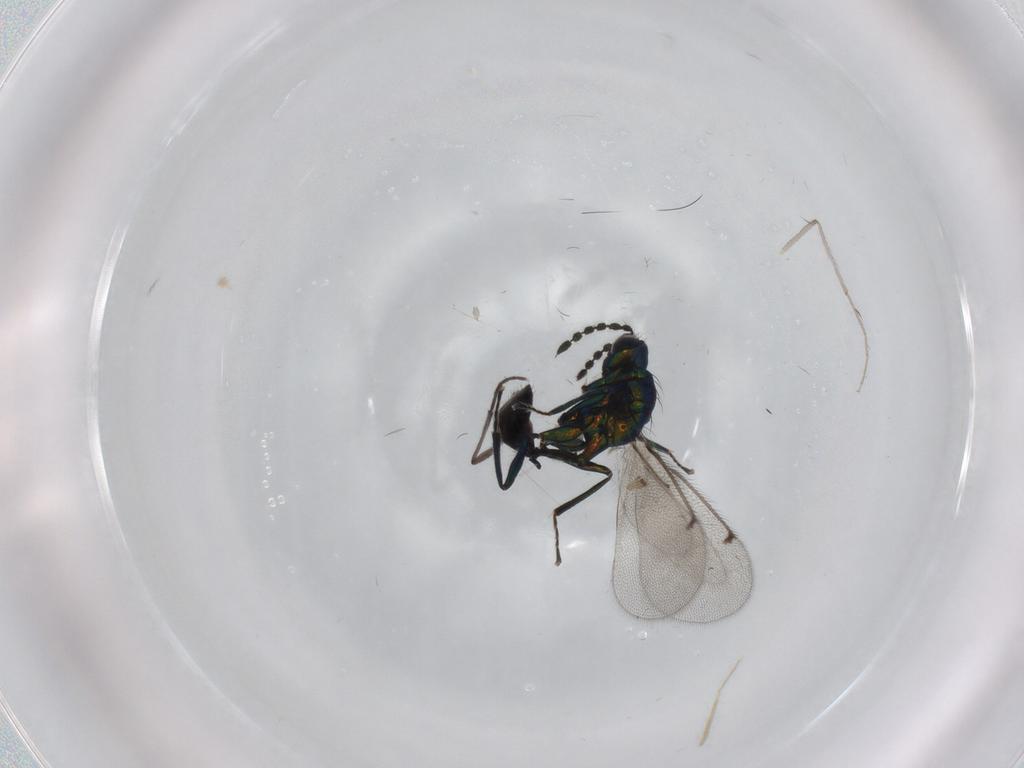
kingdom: Animalia
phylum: Arthropoda
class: Insecta
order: Hymenoptera
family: Eulophidae
